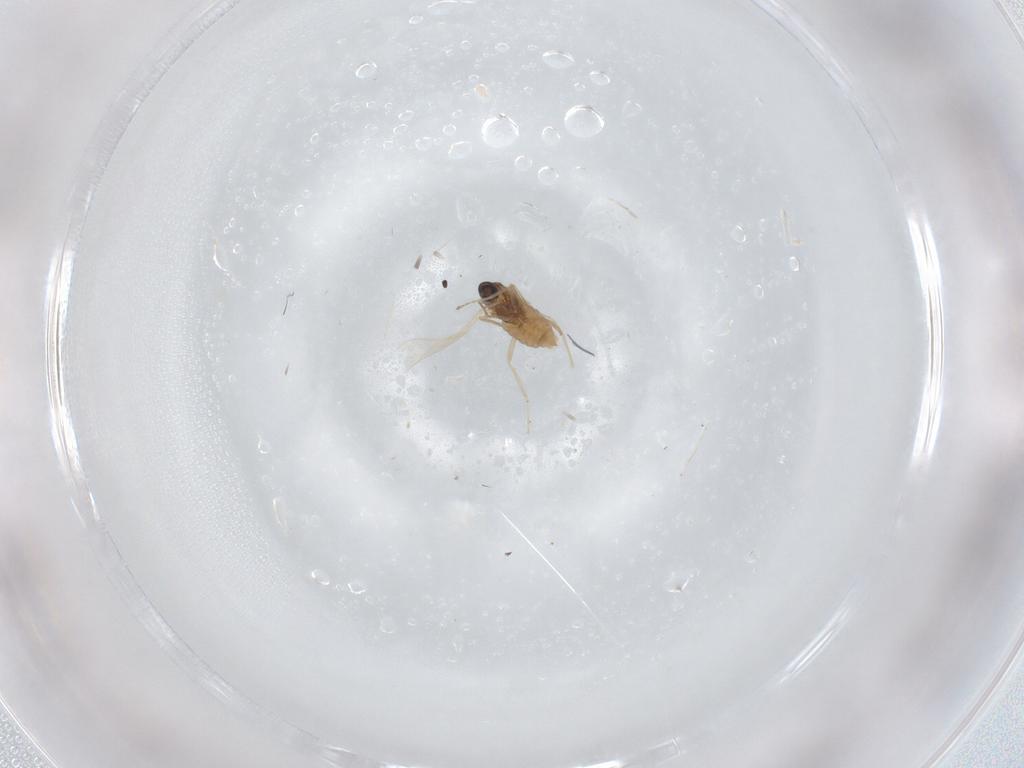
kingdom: Animalia
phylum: Arthropoda
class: Insecta
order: Diptera
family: Cecidomyiidae
